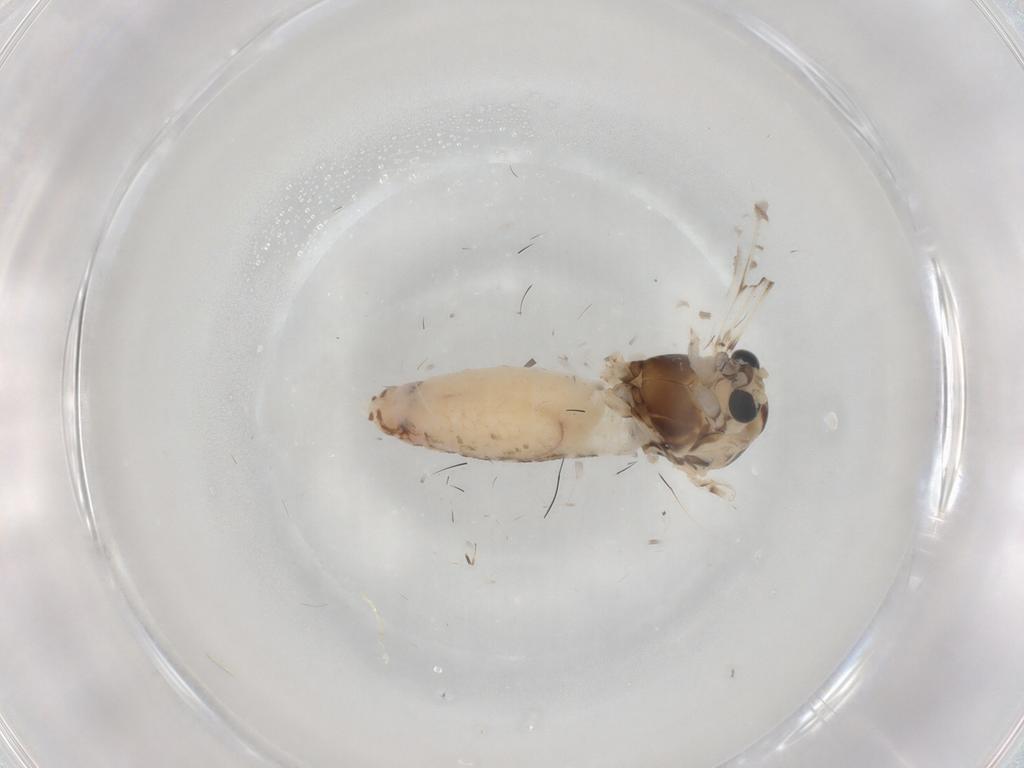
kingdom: Animalia
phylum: Arthropoda
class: Insecta
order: Diptera
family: Chironomidae
